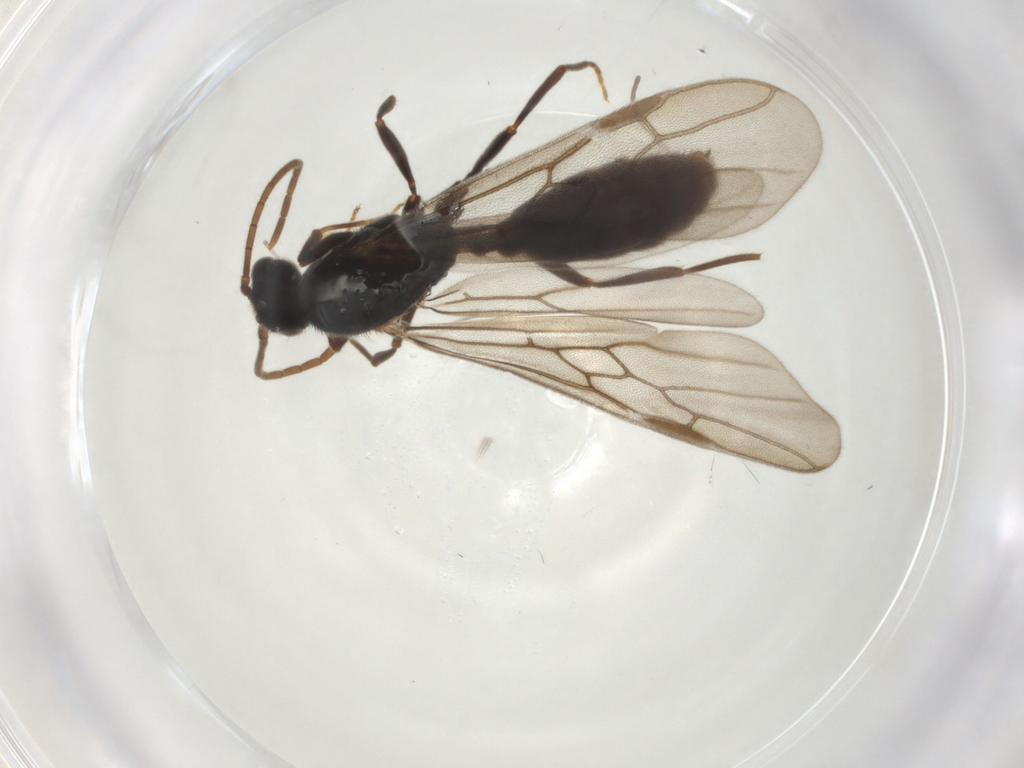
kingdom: Animalia
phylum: Arthropoda
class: Insecta
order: Hymenoptera
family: Formicidae
